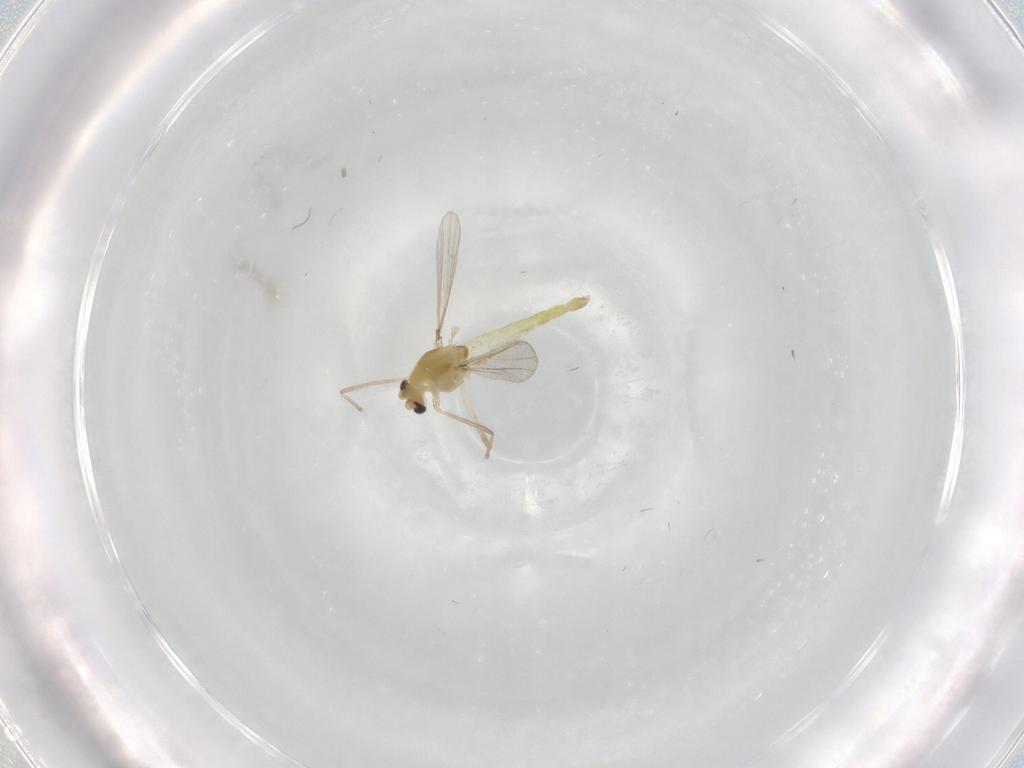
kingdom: Animalia
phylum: Arthropoda
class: Insecta
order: Diptera
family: Chironomidae
